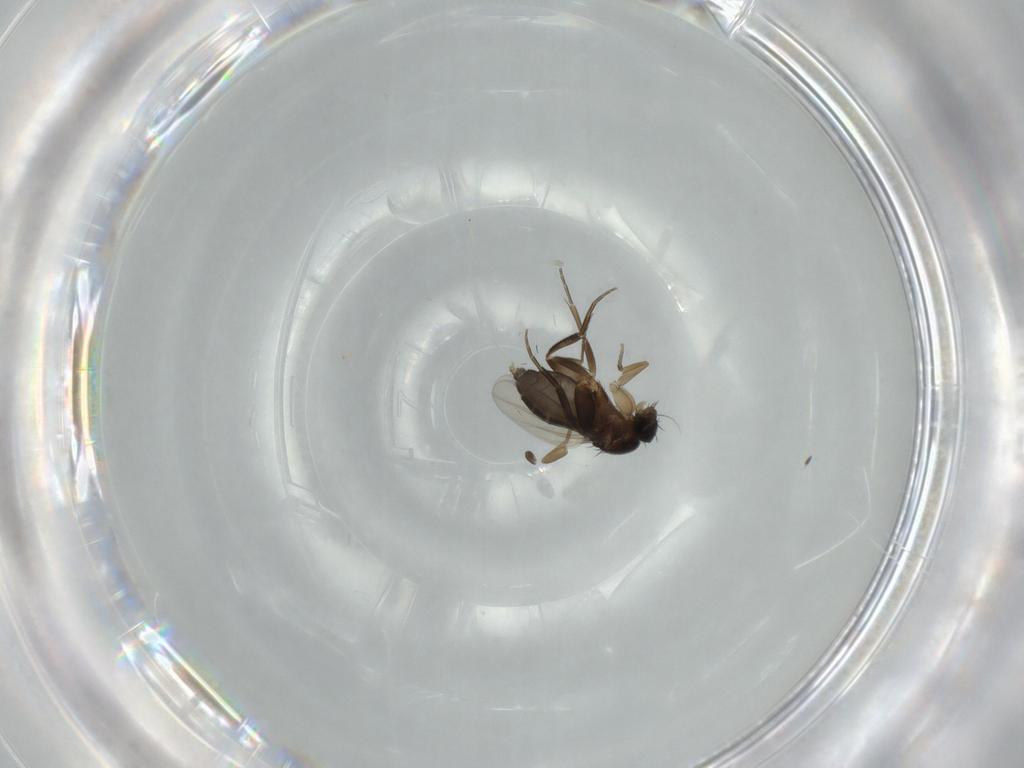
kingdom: Animalia
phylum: Arthropoda
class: Insecta
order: Diptera
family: Phoridae
